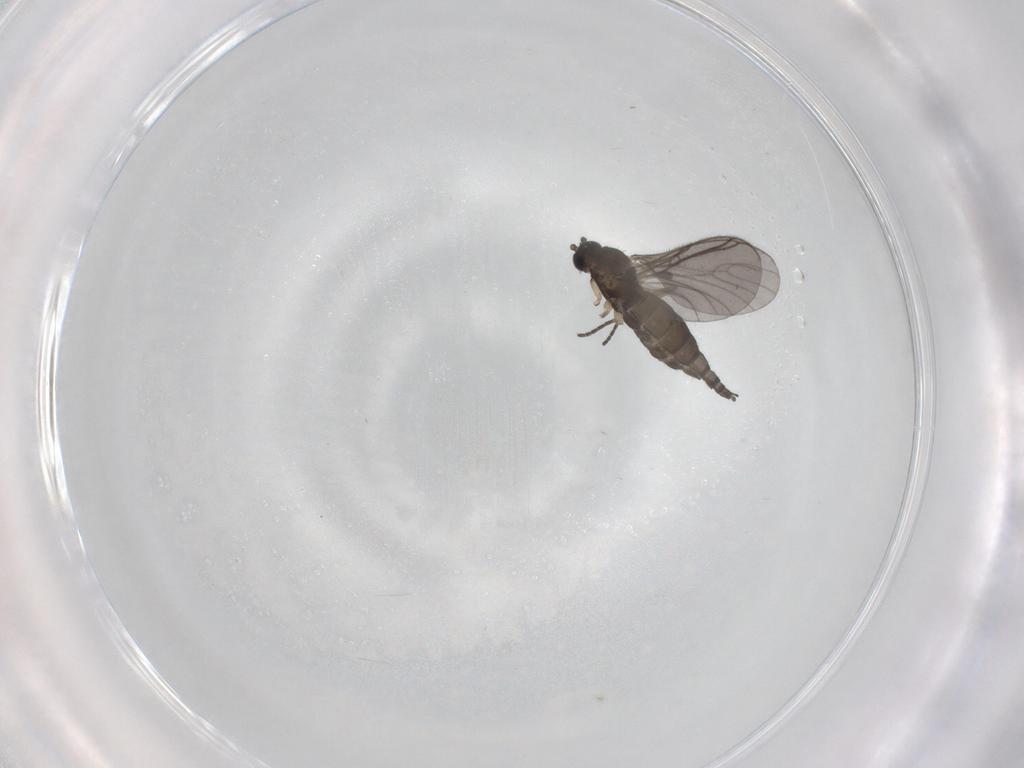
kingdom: Animalia
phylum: Arthropoda
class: Insecta
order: Diptera
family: Sciaridae
